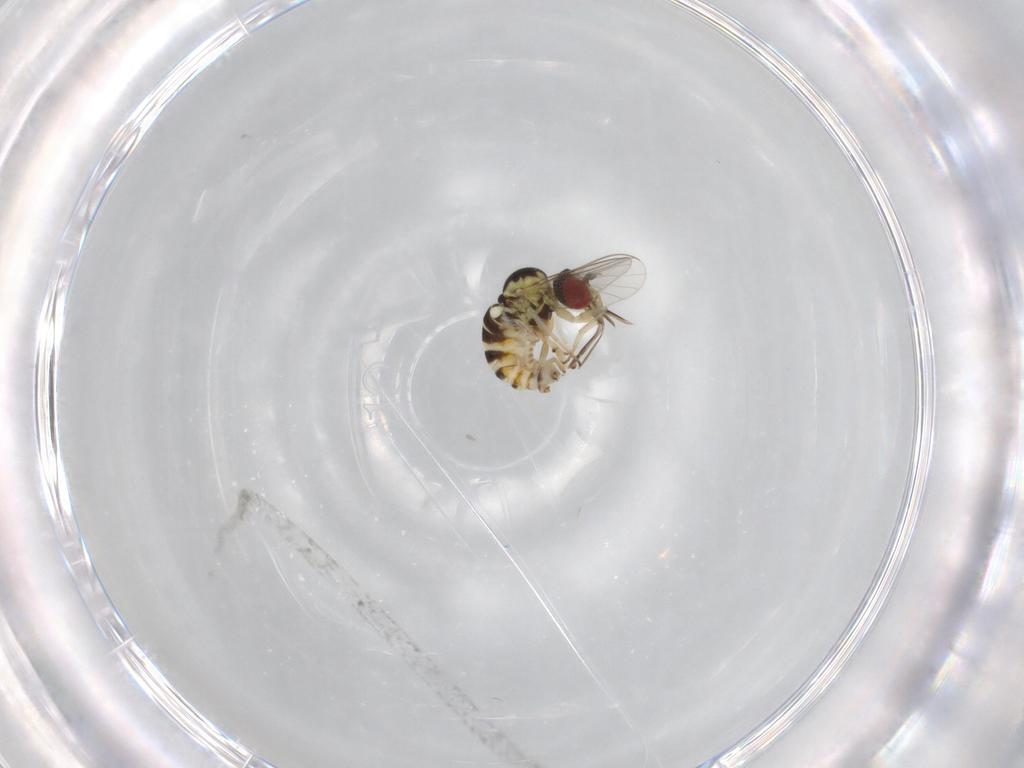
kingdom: Animalia
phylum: Arthropoda
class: Insecta
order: Diptera
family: Bombyliidae
